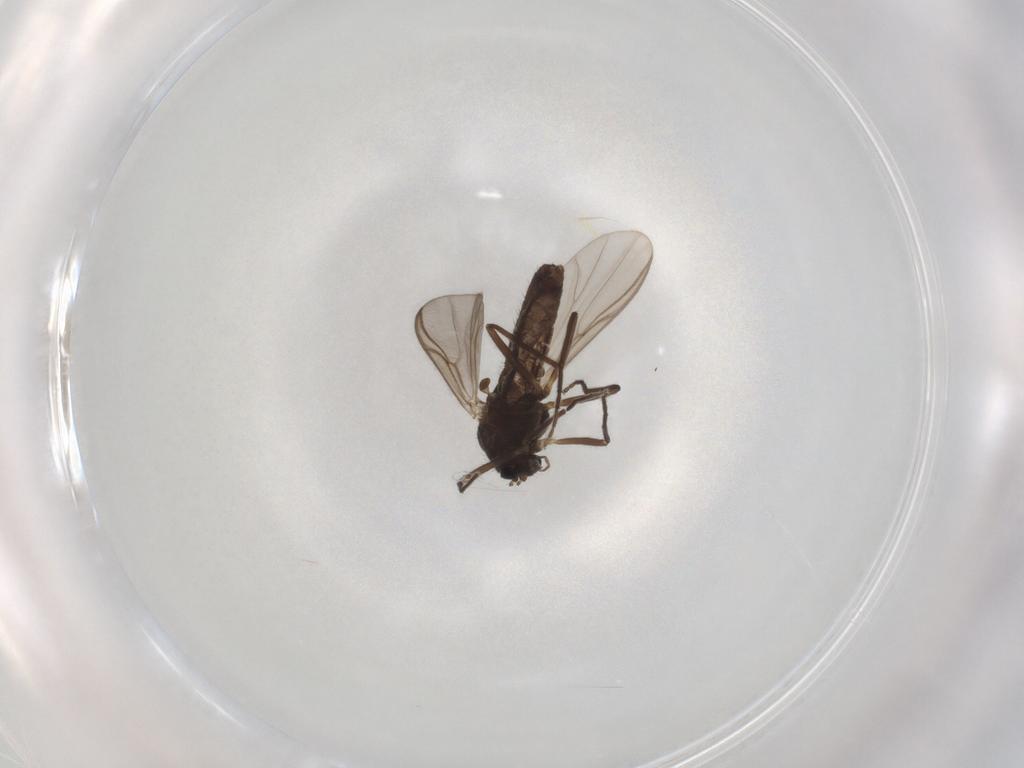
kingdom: Animalia
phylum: Arthropoda
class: Insecta
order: Diptera
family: Chironomidae
